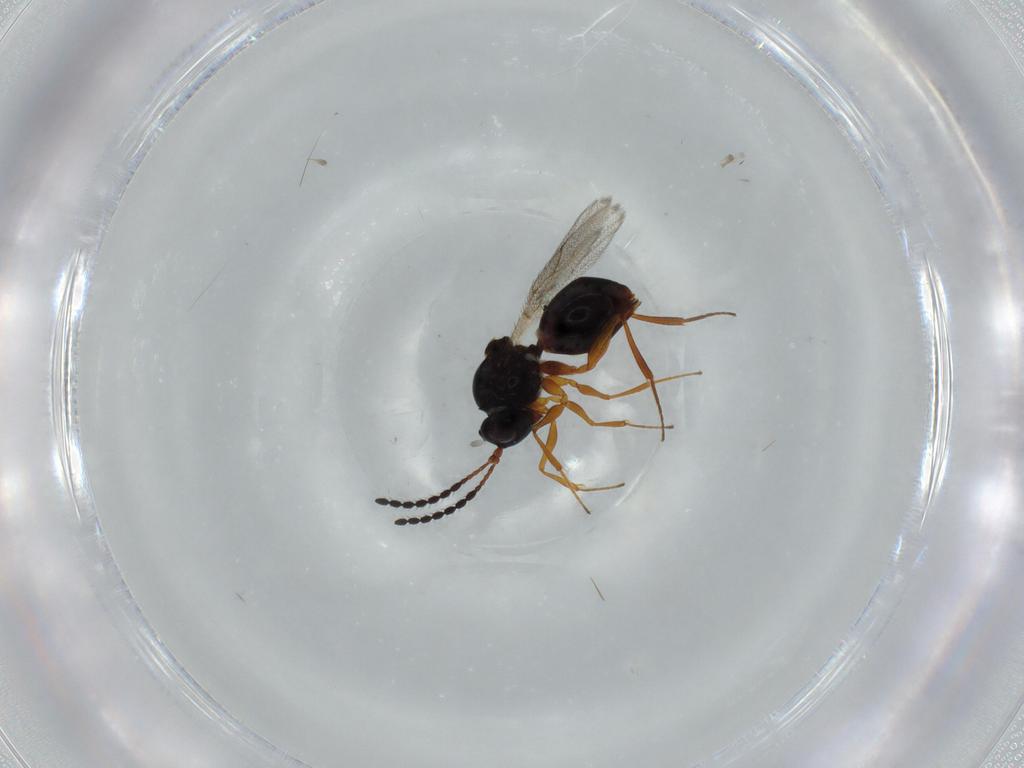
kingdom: Animalia
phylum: Arthropoda
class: Insecta
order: Hymenoptera
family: Figitidae
